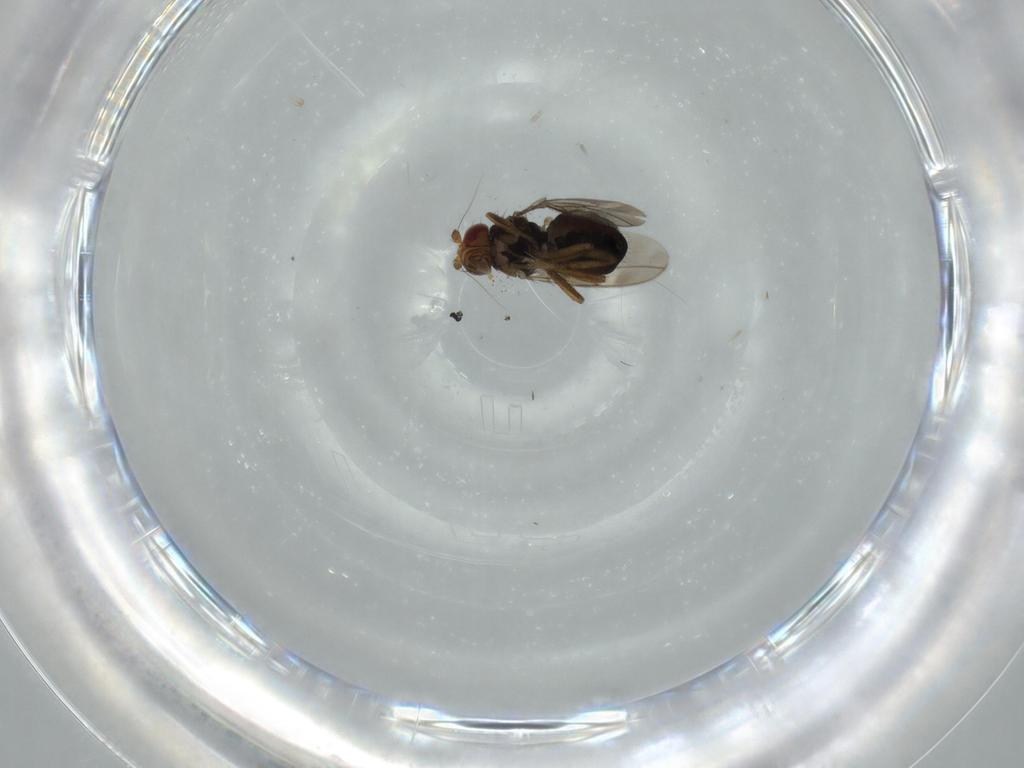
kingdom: Animalia
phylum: Arthropoda
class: Insecta
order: Diptera
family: Sphaeroceridae
